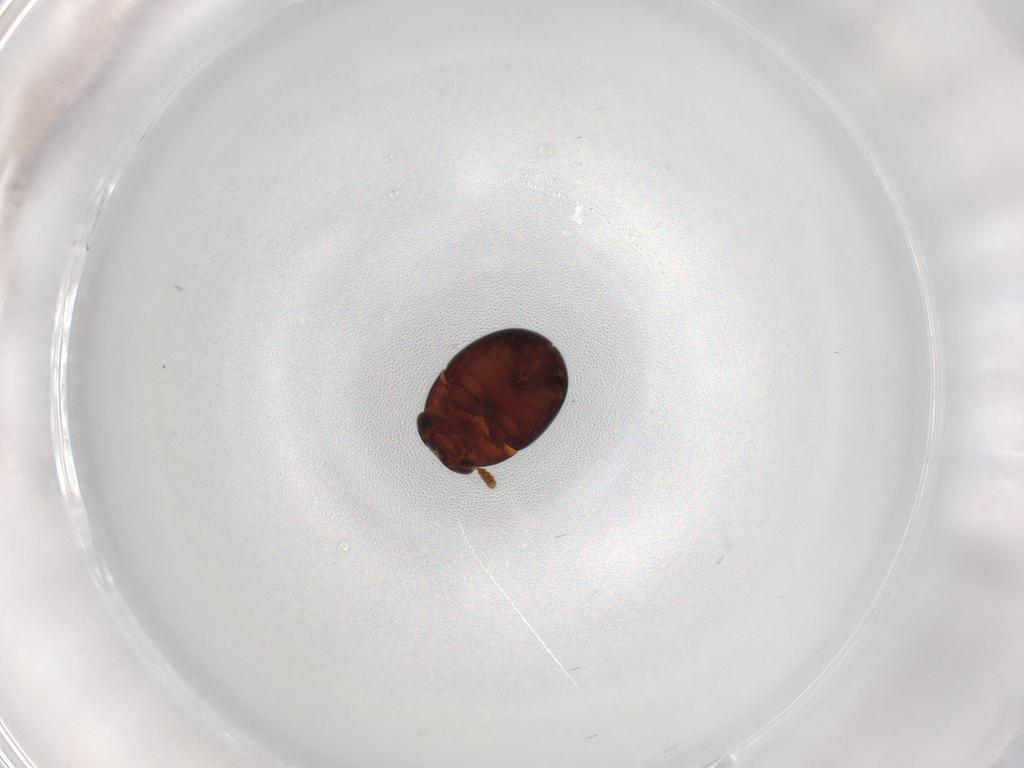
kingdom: Animalia
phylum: Arthropoda
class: Insecta
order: Coleoptera
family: Leiodidae
